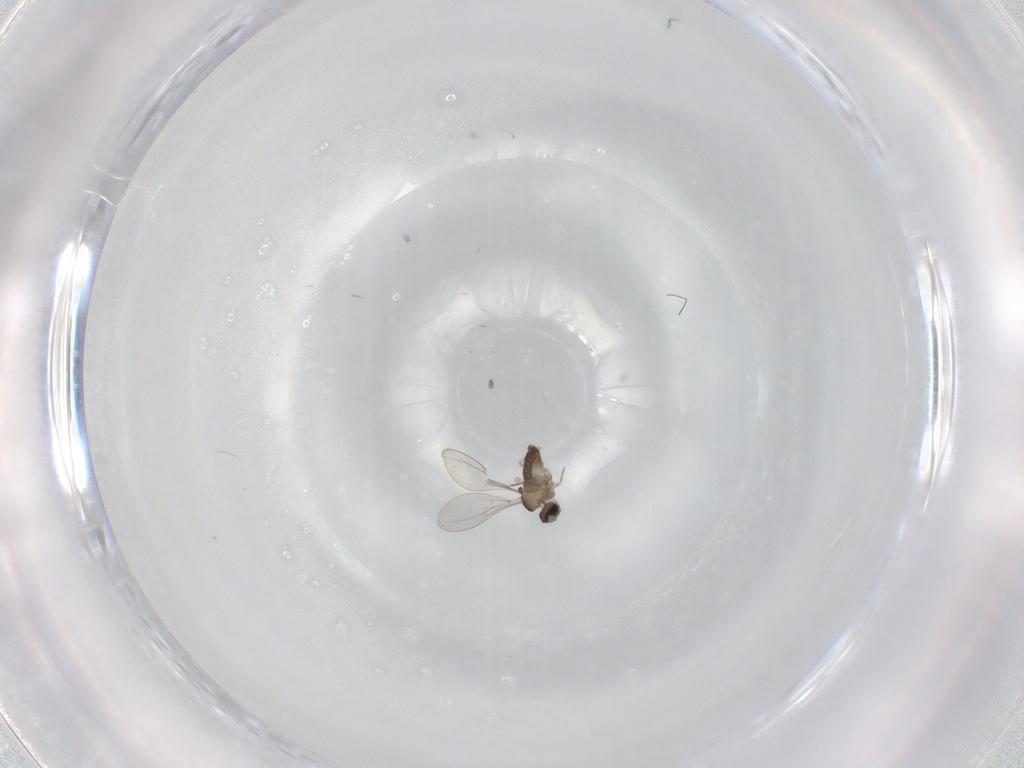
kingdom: Animalia
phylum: Arthropoda
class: Insecta
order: Diptera
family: Cecidomyiidae
